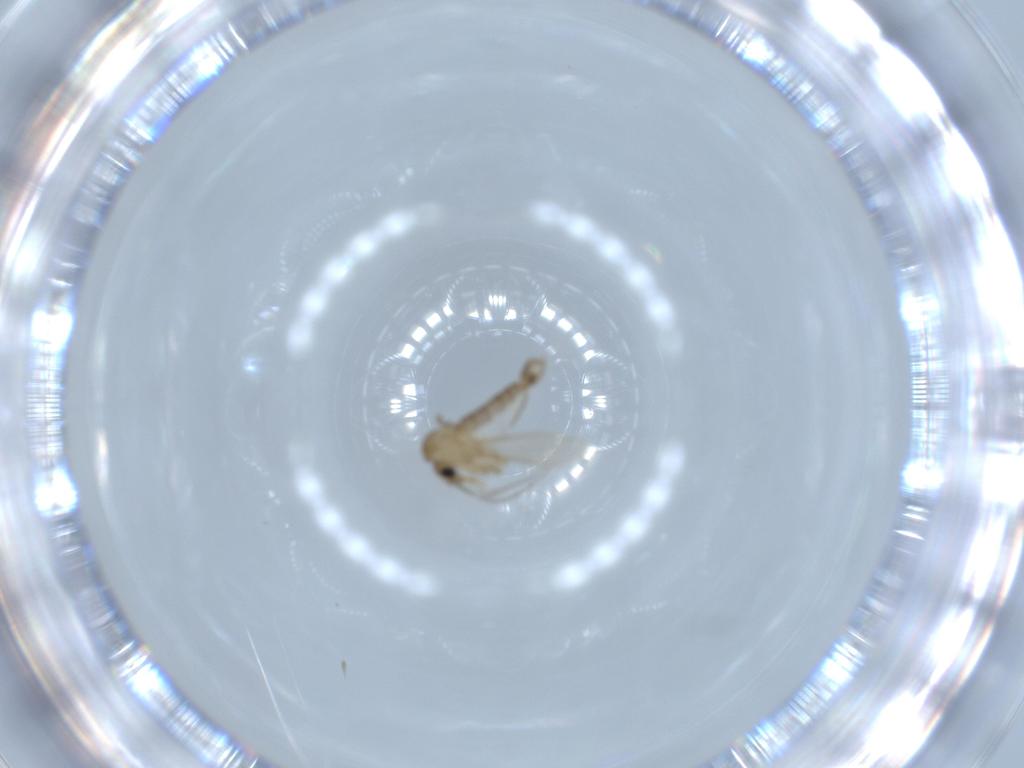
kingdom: Animalia
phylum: Arthropoda
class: Insecta
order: Diptera
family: Psychodidae
